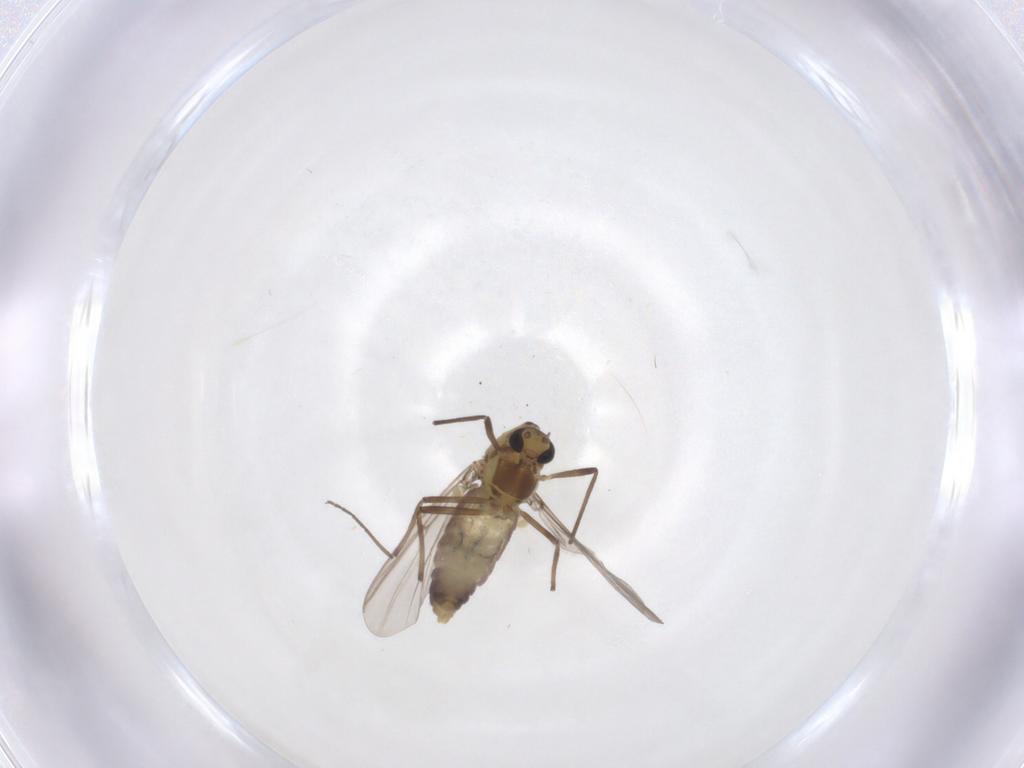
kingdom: Animalia
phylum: Arthropoda
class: Insecta
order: Diptera
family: Chironomidae
